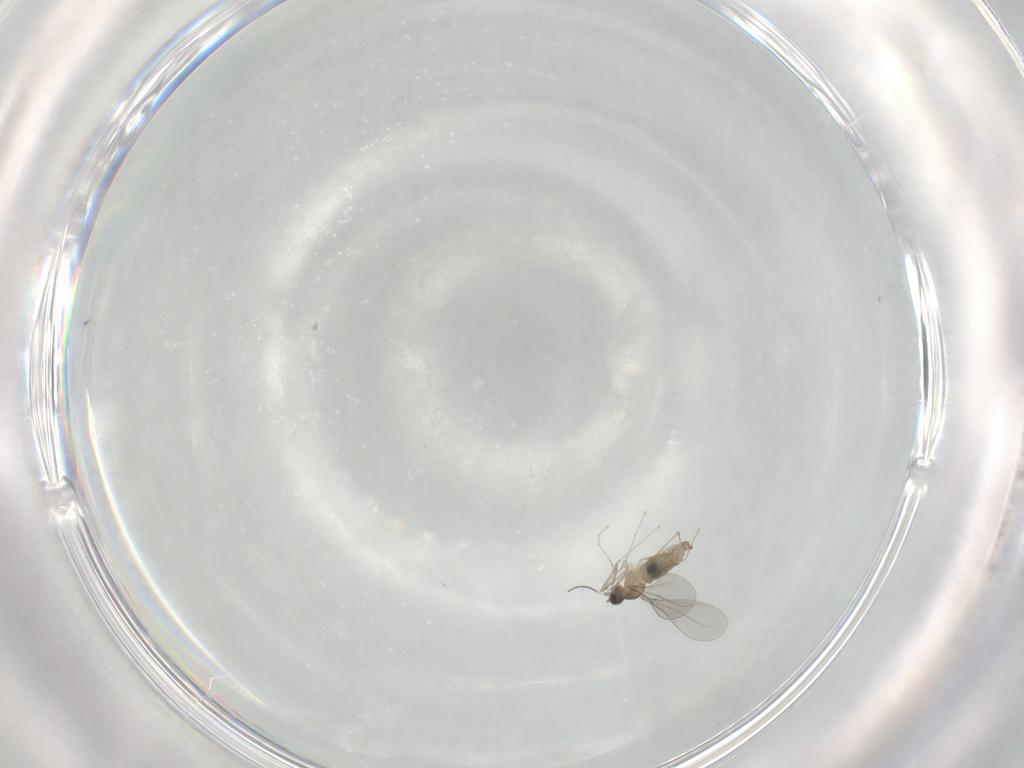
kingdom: Animalia
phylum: Arthropoda
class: Insecta
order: Diptera
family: Cecidomyiidae
